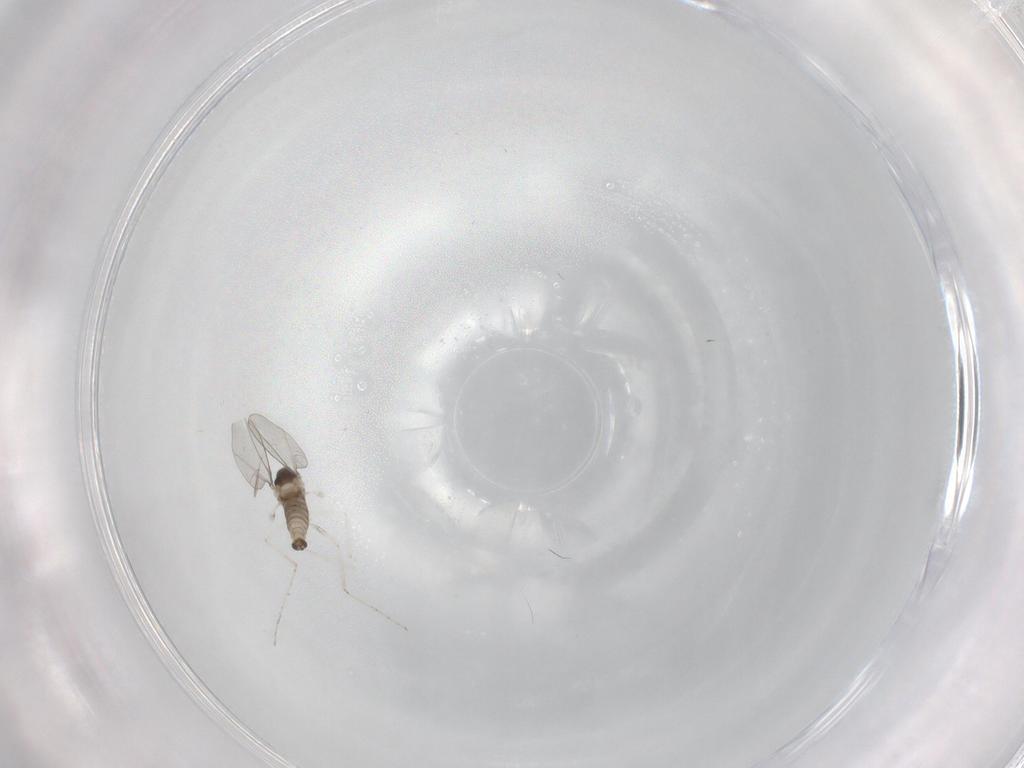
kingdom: Animalia
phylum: Arthropoda
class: Insecta
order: Diptera
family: Cecidomyiidae
